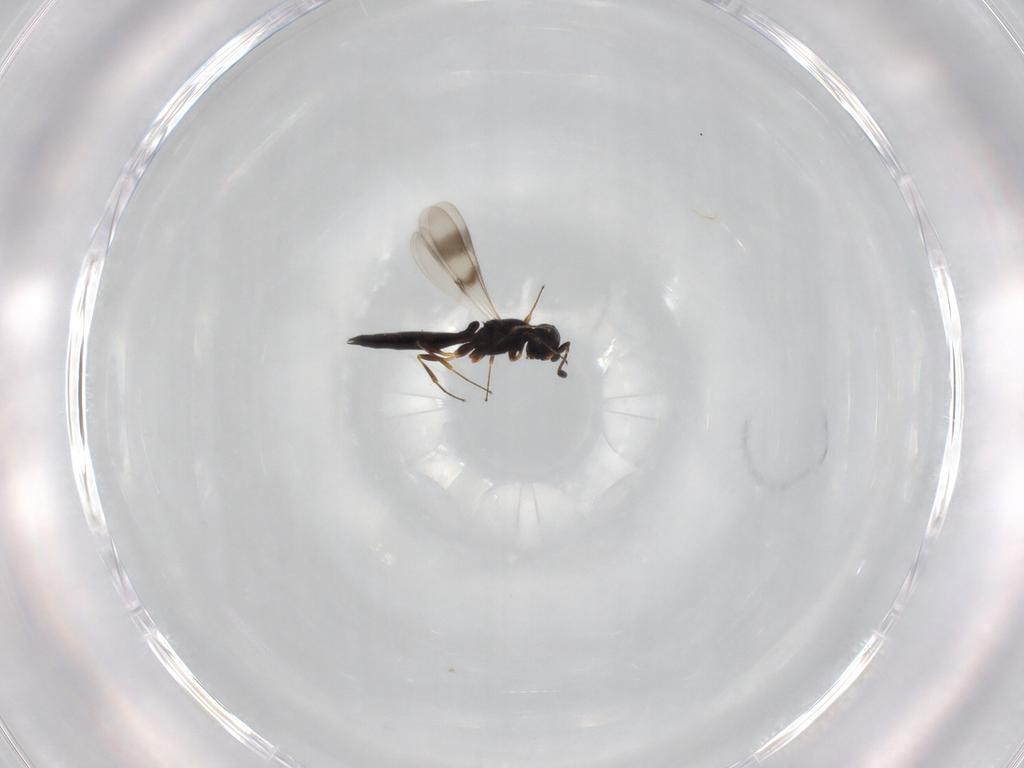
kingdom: Animalia
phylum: Arthropoda
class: Insecta
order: Hymenoptera
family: Scelionidae
